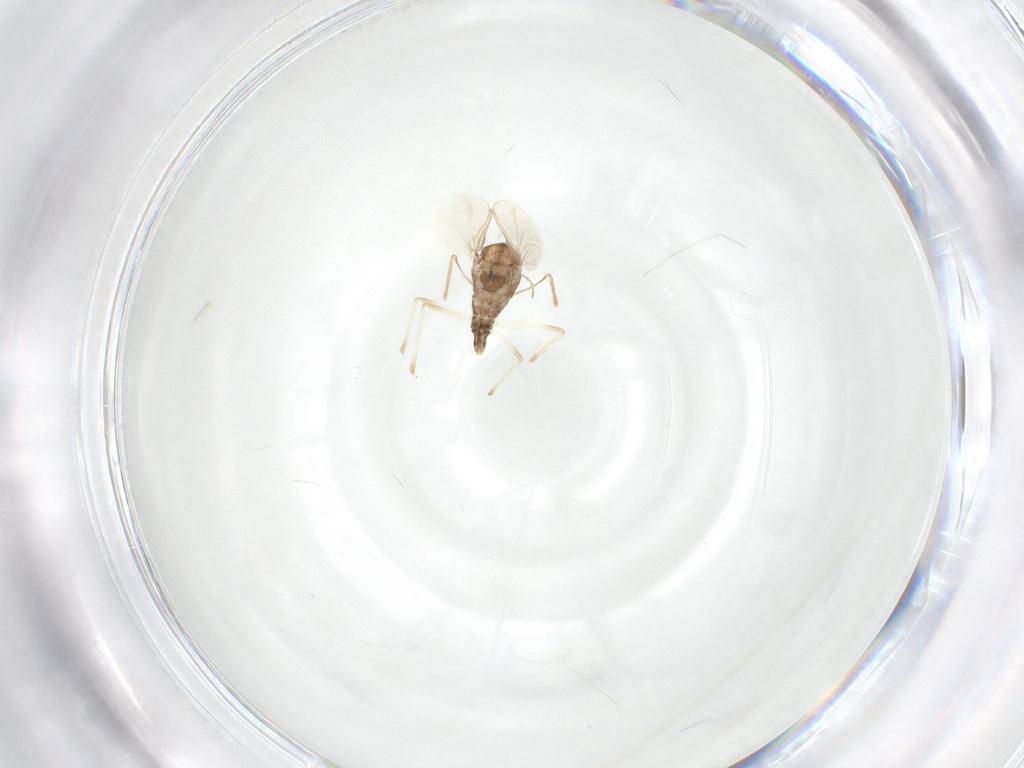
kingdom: Animalia
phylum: Arthropoda
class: Insecta
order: Diptera
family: Chironomidae
